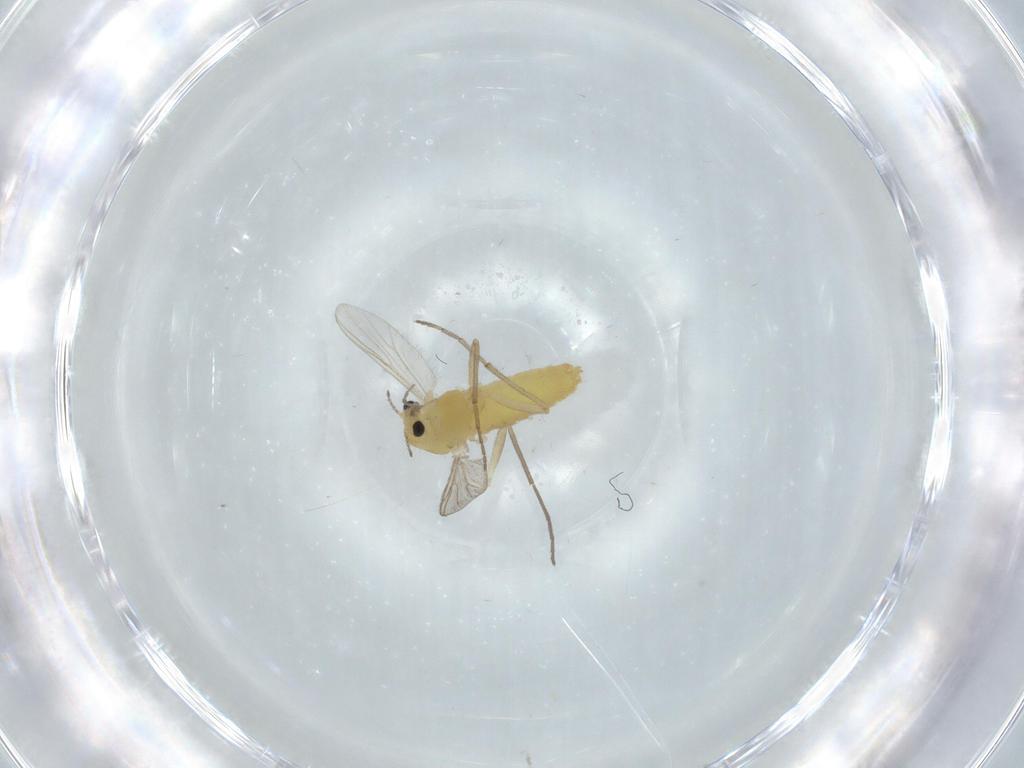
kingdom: Animalia
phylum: Arthropoda
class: Insecta
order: Diptera
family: Chironomidae
